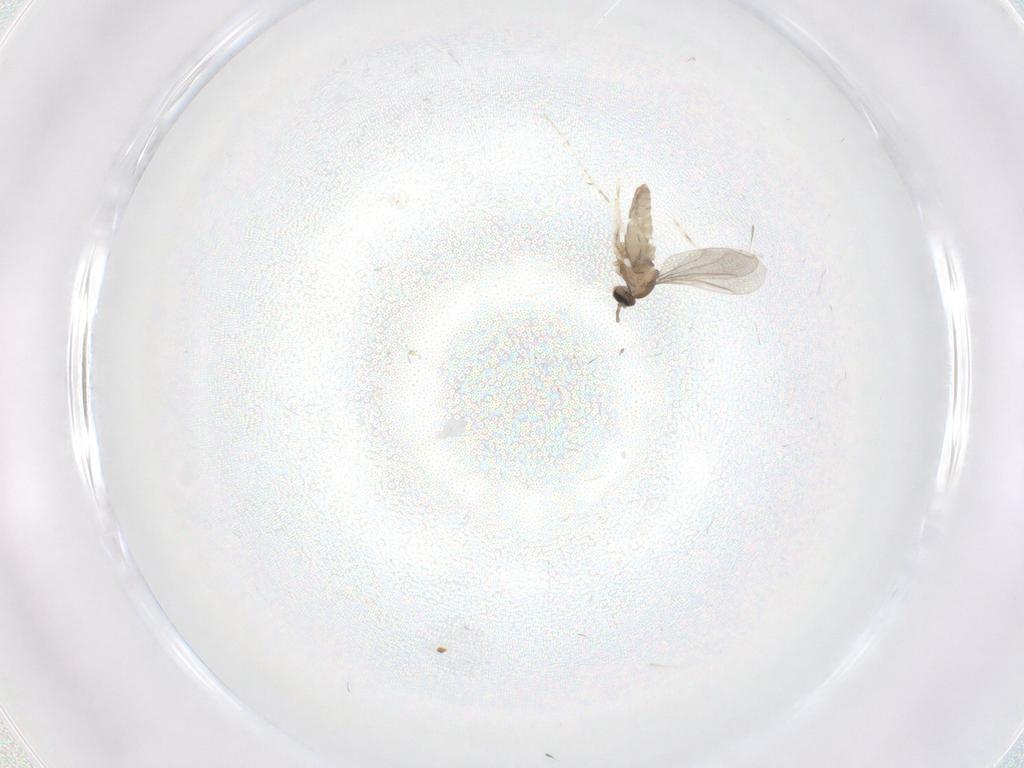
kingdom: Animalia
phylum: Arthropoda
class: Insecta
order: Diptera
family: Cecidomyiidae
